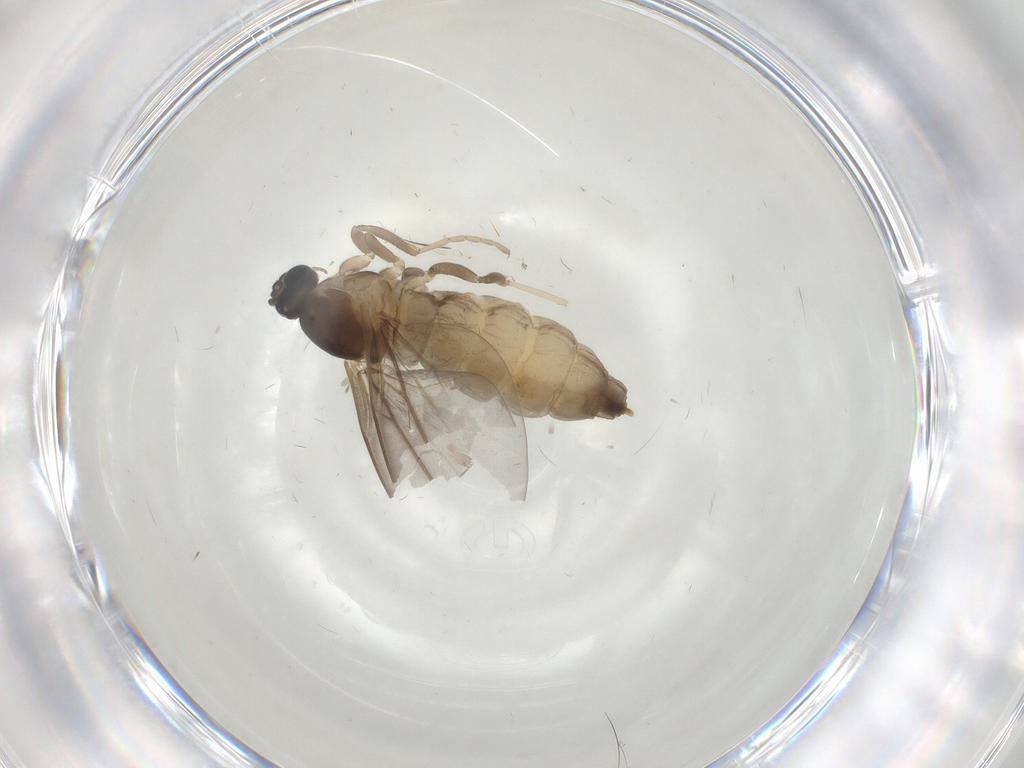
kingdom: Animalia
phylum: Arthropoda
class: Insecta
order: Diptera
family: Cecidomyiidae
